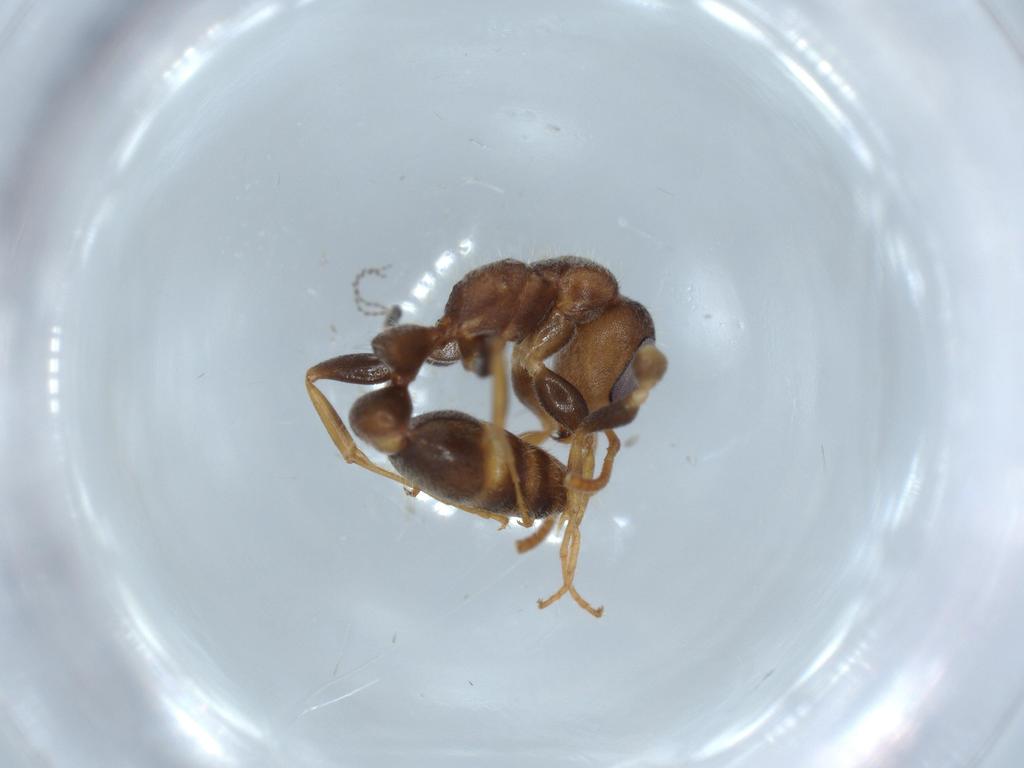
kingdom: Animalia
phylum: Arthropoda
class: Insecta
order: Hymenoptera
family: Formicidae
